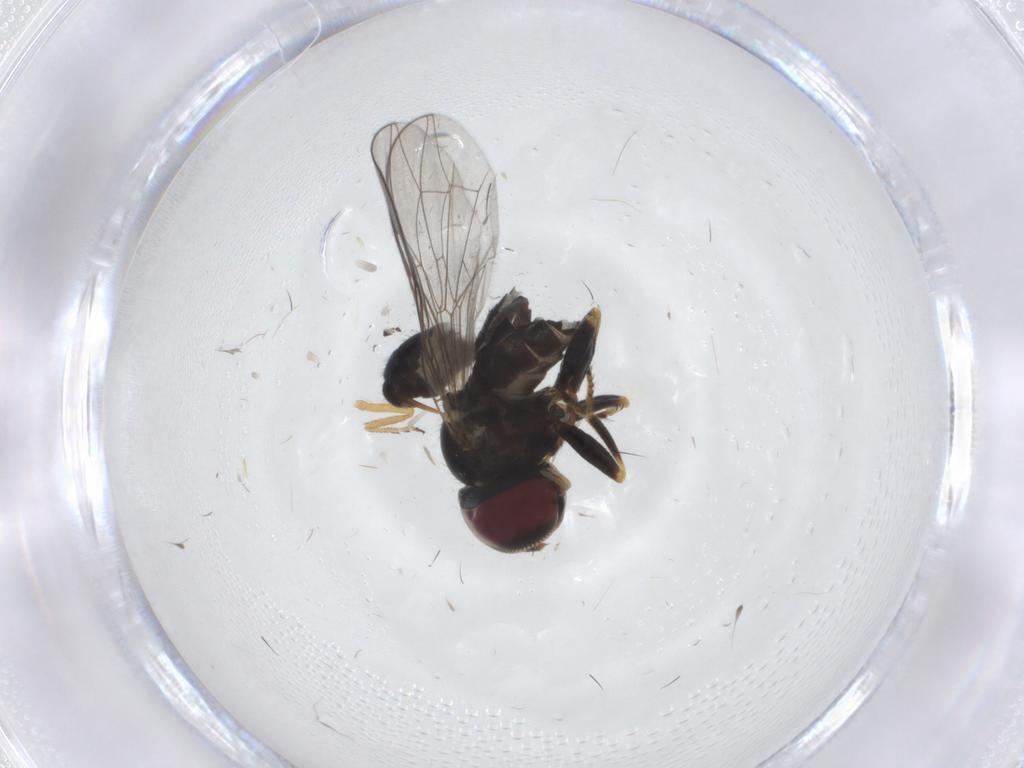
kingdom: Animalia
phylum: Arthropoda
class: Insecta
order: Diptera
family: Pipunculidae
